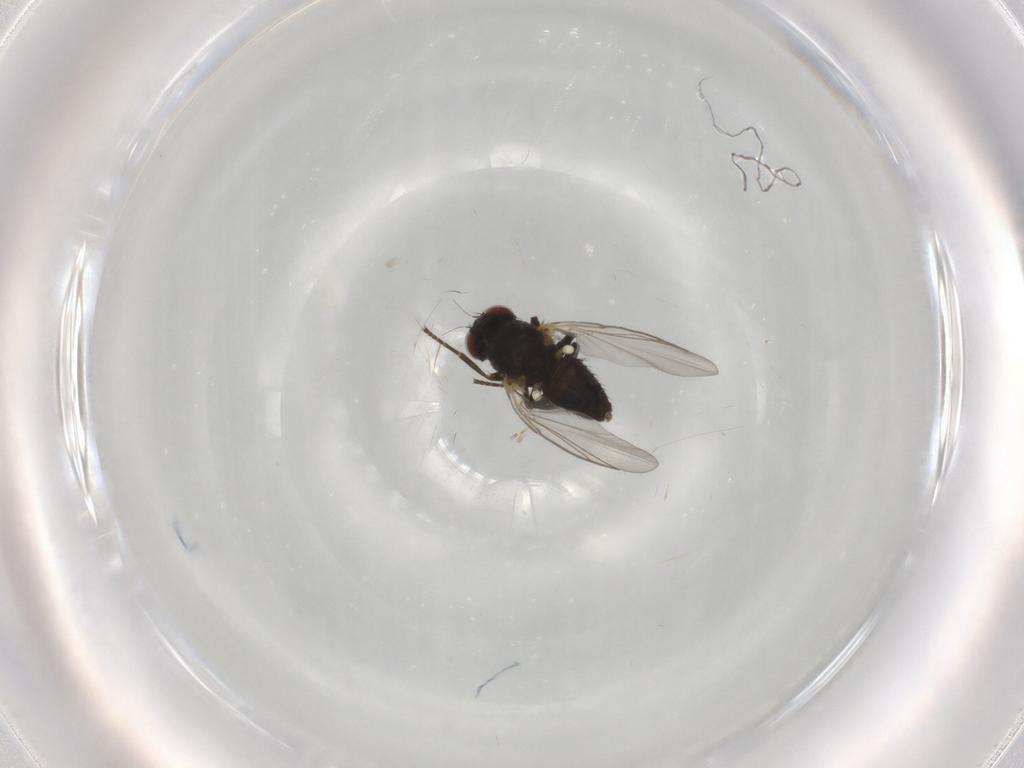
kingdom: Animalia
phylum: Arthropoda
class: Insecta
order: Diptera
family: Agromyzidae
